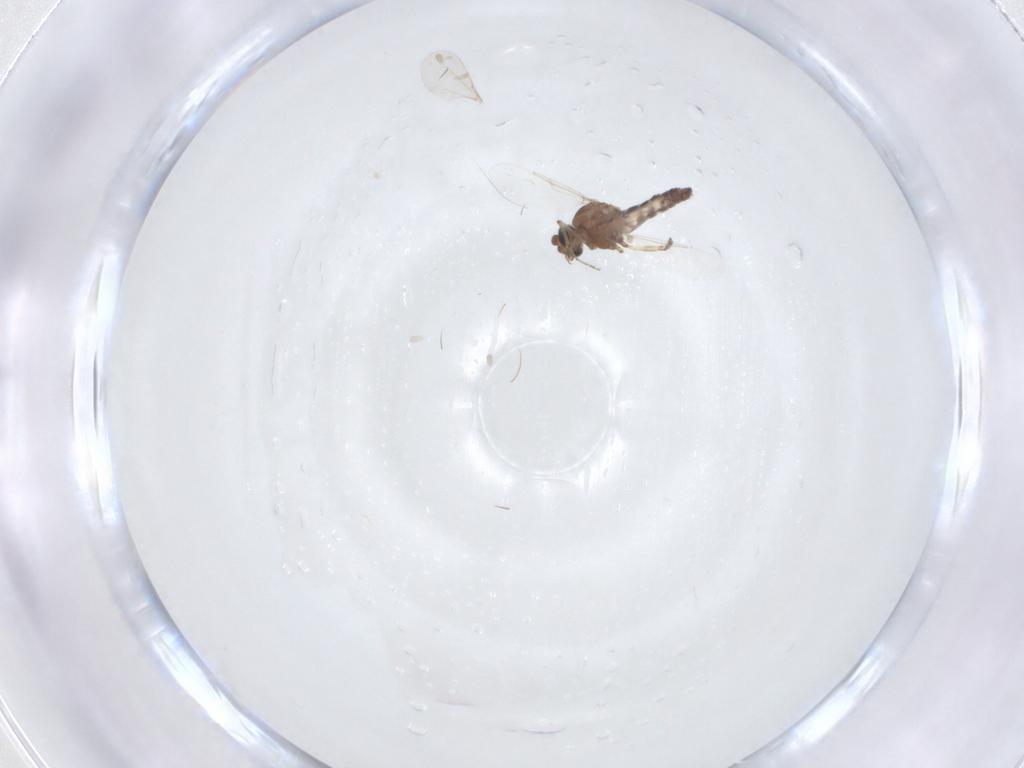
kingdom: Animalia
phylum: Arthropoda
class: Insecta
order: Diptera
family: Ceratopogonidae
